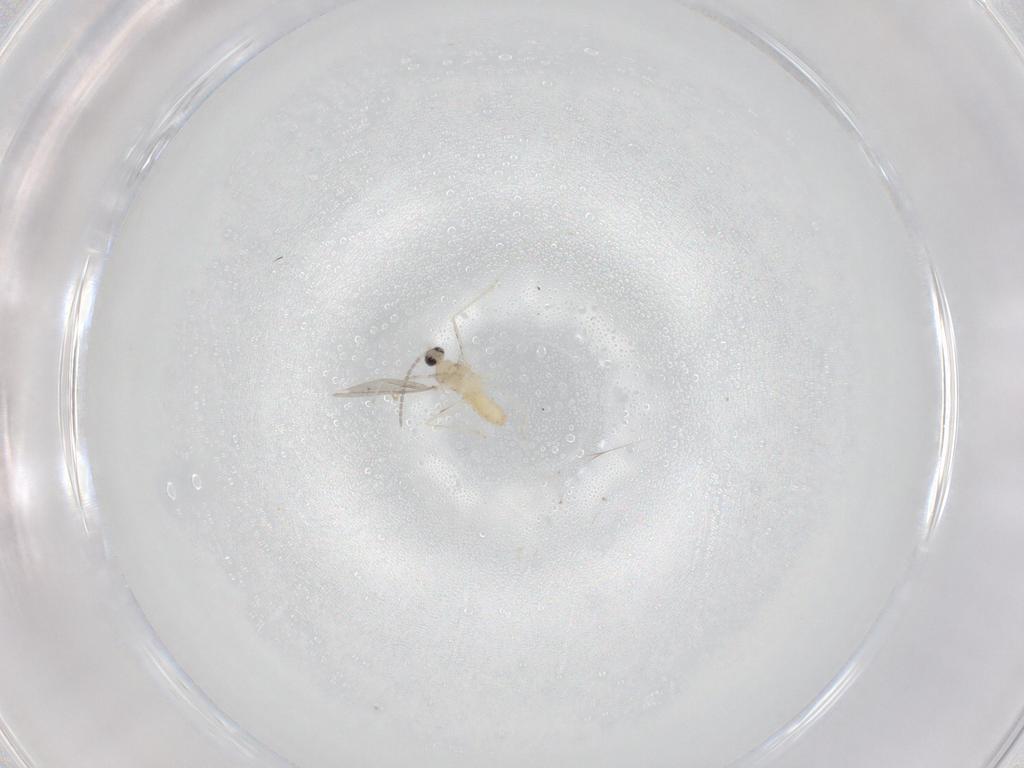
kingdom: Animalia
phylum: Arthropoda
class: Insecta
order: Diptera
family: Cecidomyiidae
